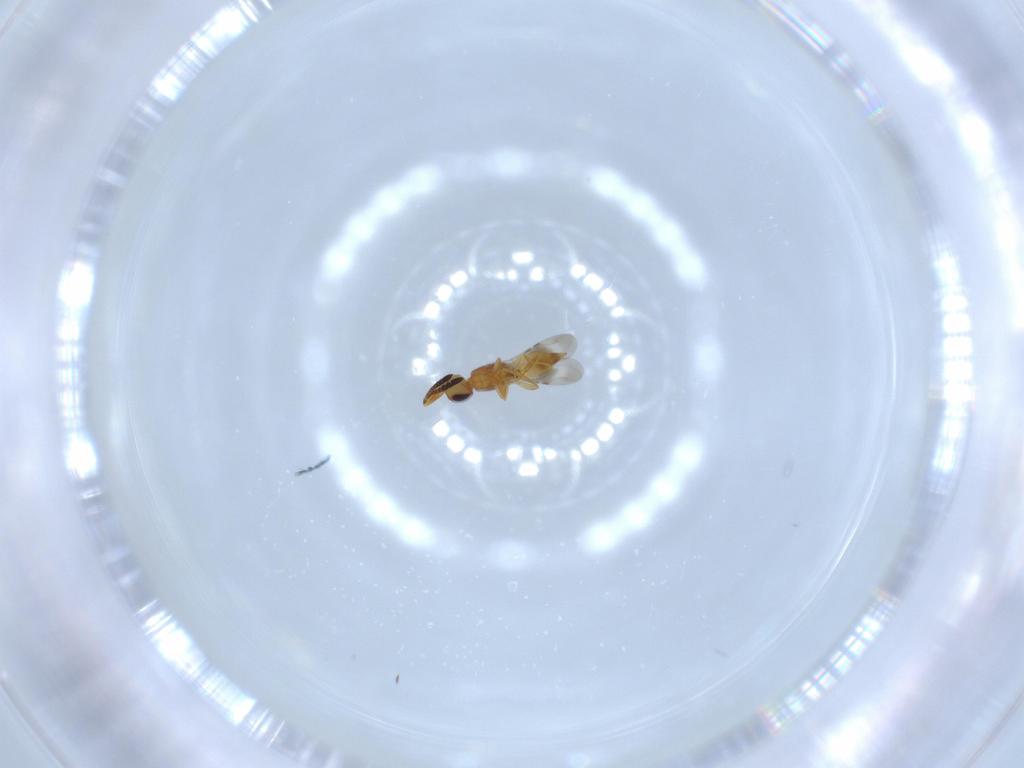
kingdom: Animalia
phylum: Arthropoda
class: Insecta
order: Hymenoptera
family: Ceraphronidae
